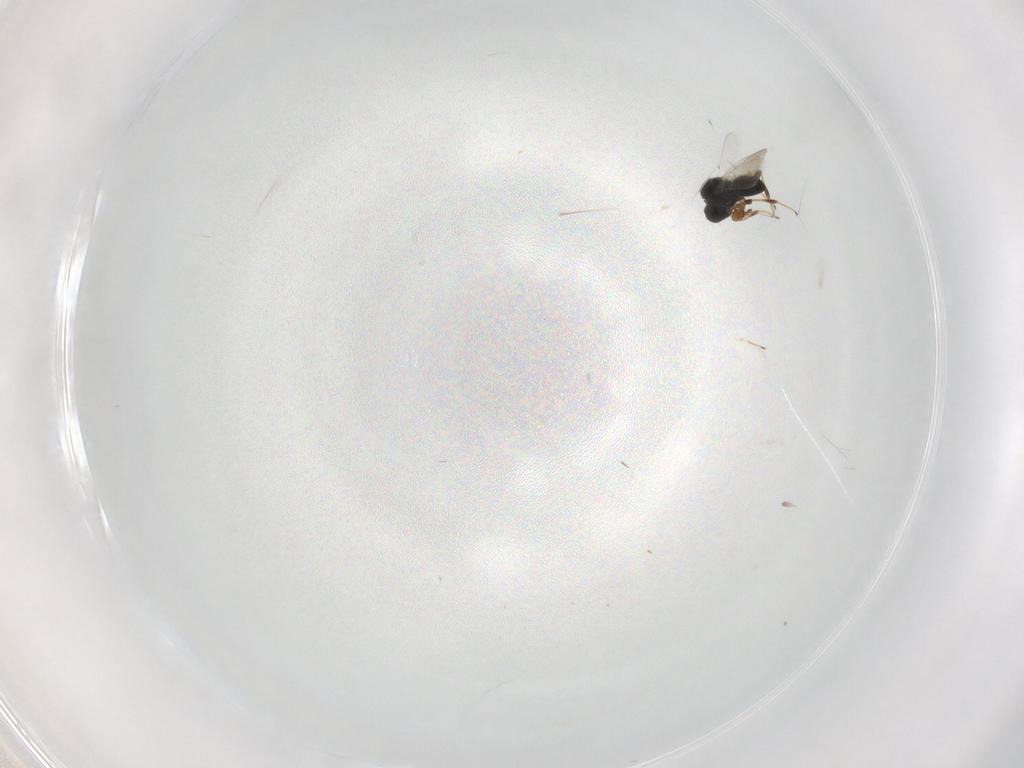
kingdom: Animalia
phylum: Arthropoda
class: Insecta
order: Hymenoptera
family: Platygastridae
